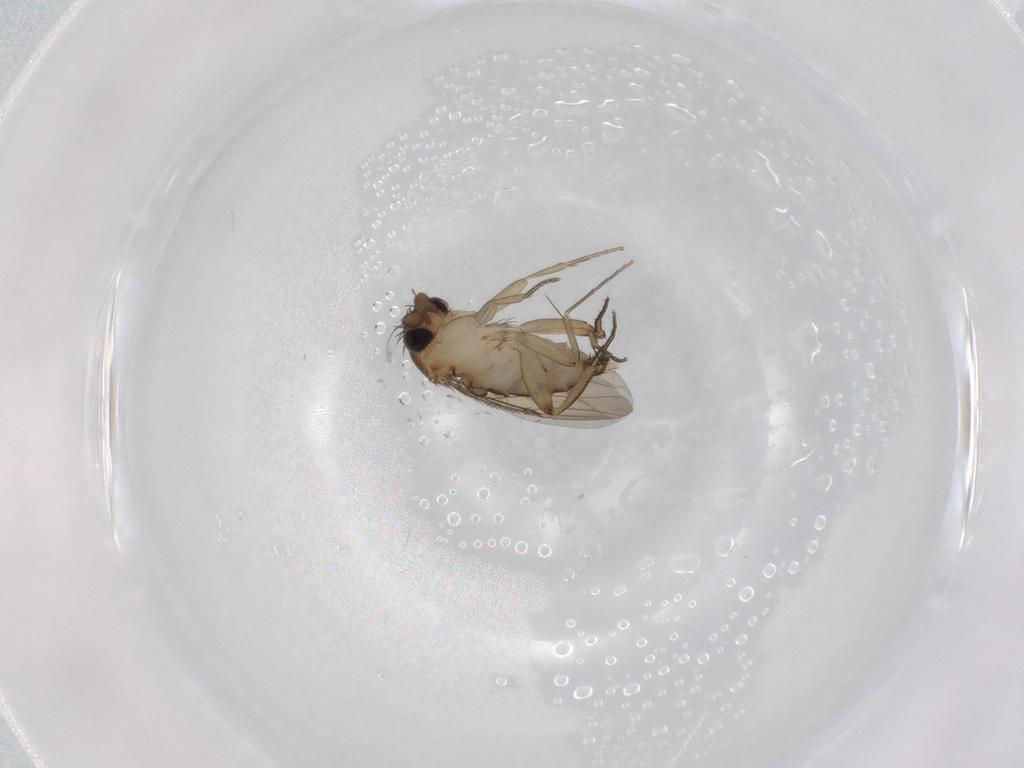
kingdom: Animalia
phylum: Arthropoda
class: Insecta
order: Diptera
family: Phoridae
